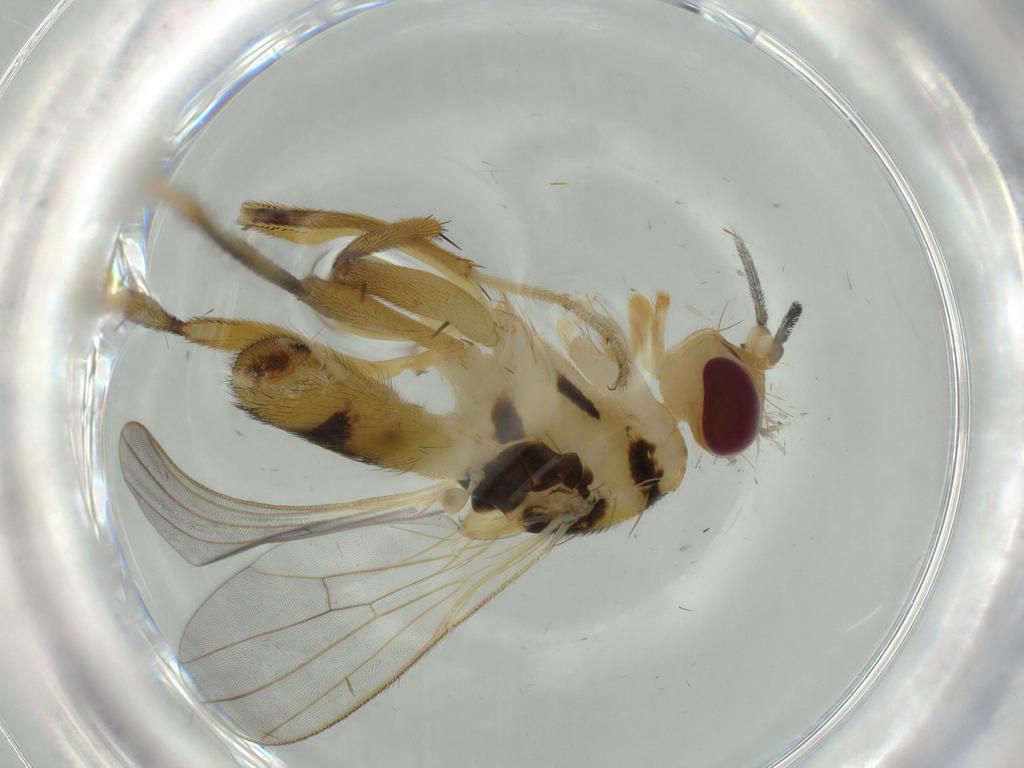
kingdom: Animalia
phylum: Arthropoda
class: Insecta
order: Diptera
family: Clusiidae
